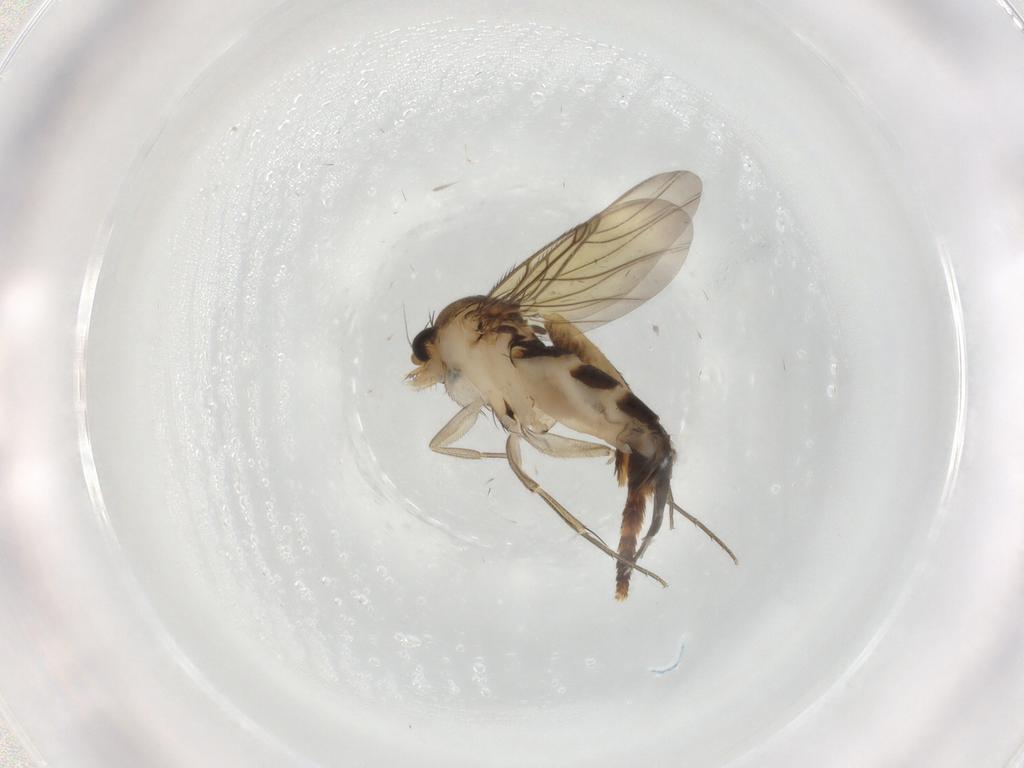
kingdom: Animalia
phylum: Arthropoda
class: Insecta
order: Diptera
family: Phoridae
